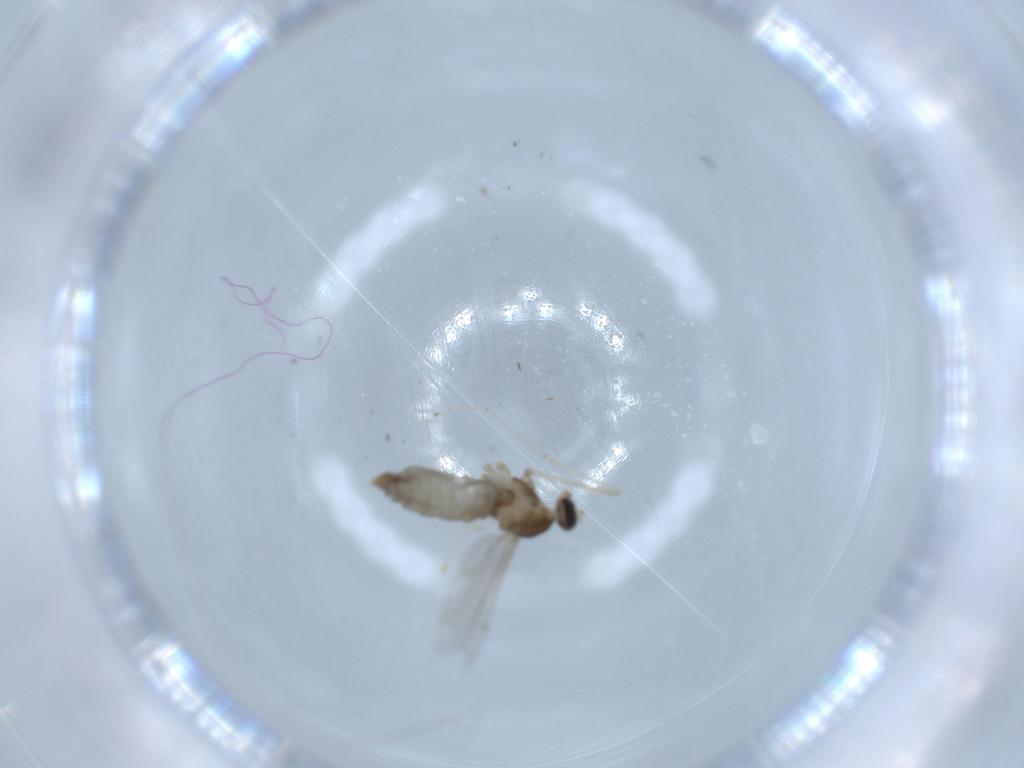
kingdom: Animalia
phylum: Arthropoda
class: Insecta
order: Diptera
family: Cecidomyiidae
